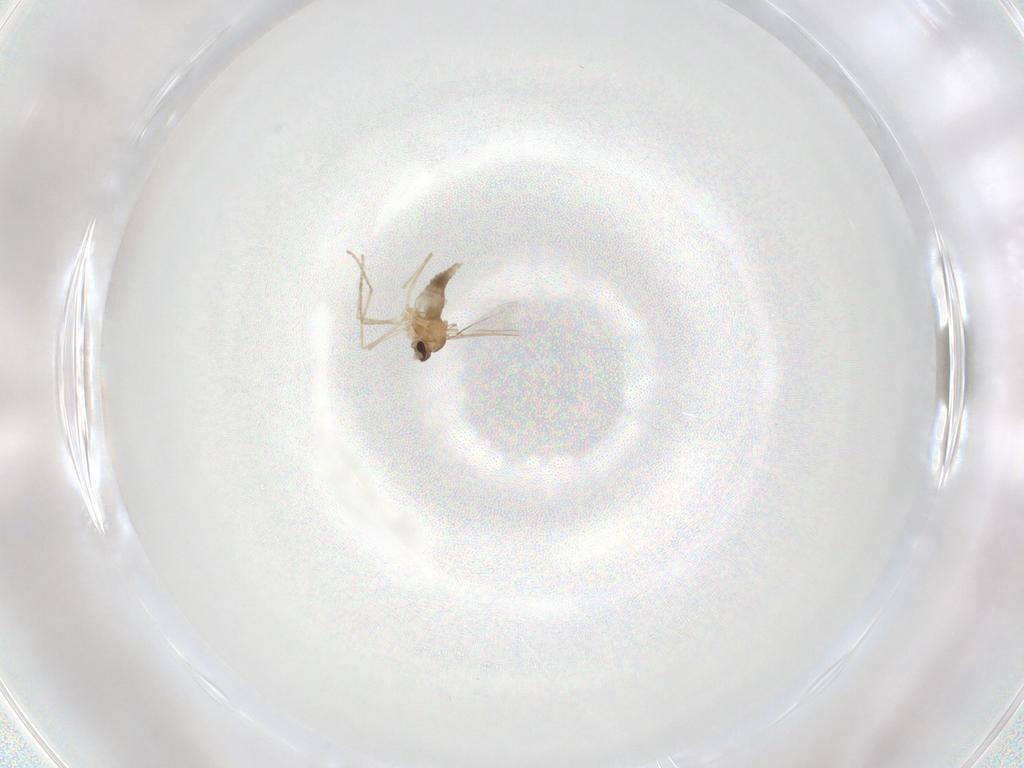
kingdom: Animalia
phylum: Arthropoda
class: Insecta
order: Diptera
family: Cecidomyiidae
